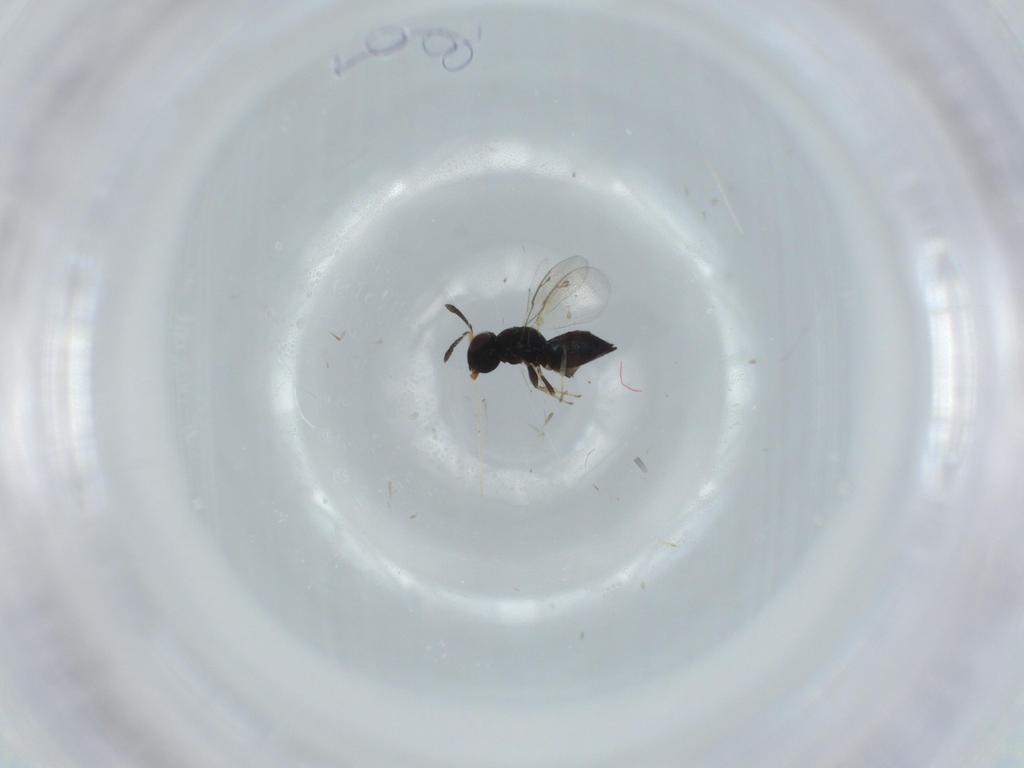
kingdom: Animalia
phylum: Arthropoda
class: Insecta
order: Hymenoptera
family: Pteromalidae
